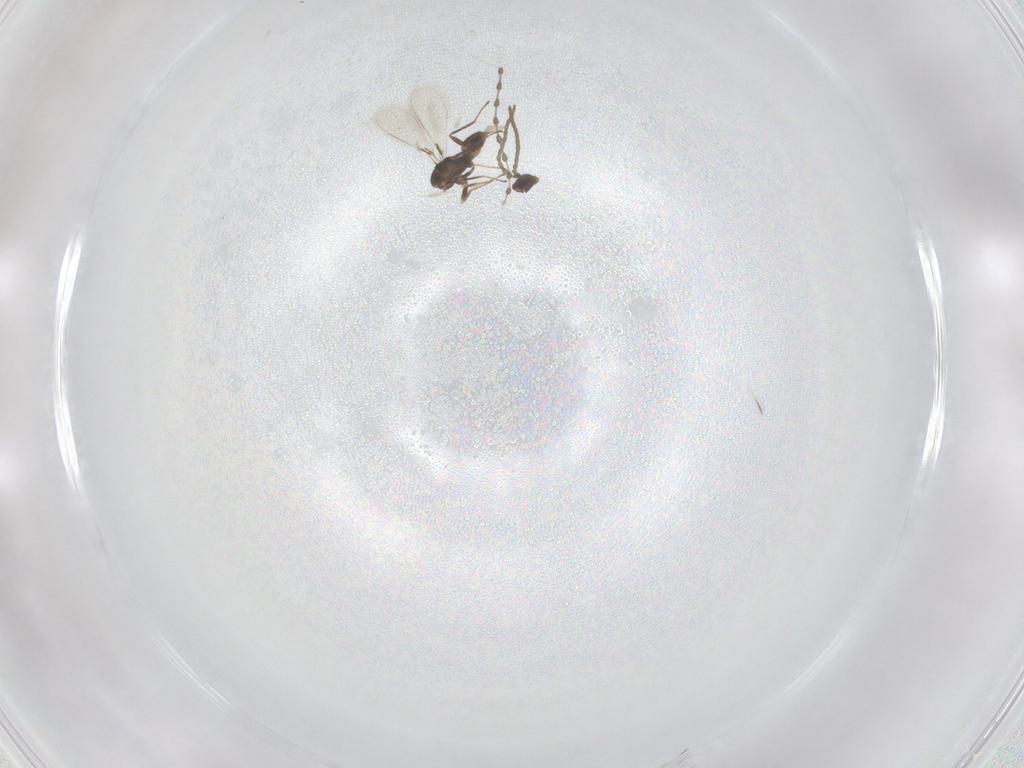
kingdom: Animalia
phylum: Arthropoda
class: Insecta
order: Hymenoptera
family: Mymaridae
